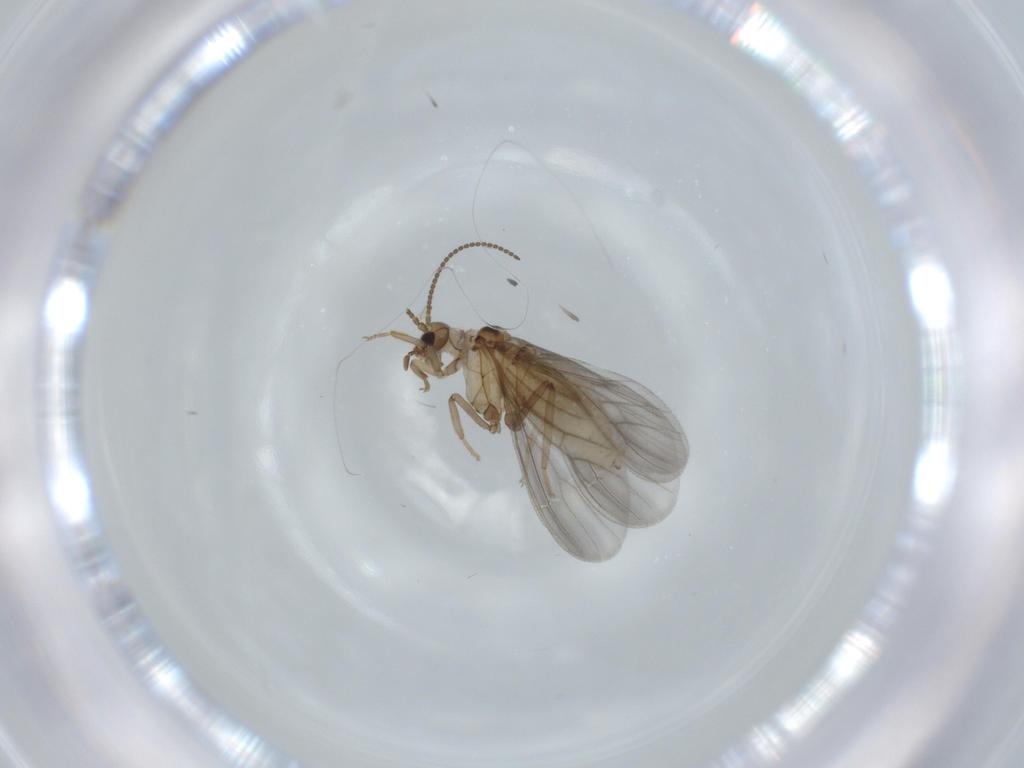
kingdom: Animalia
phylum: Arthropoda
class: Insecta
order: Neuroptera
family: Coniopterygidae
